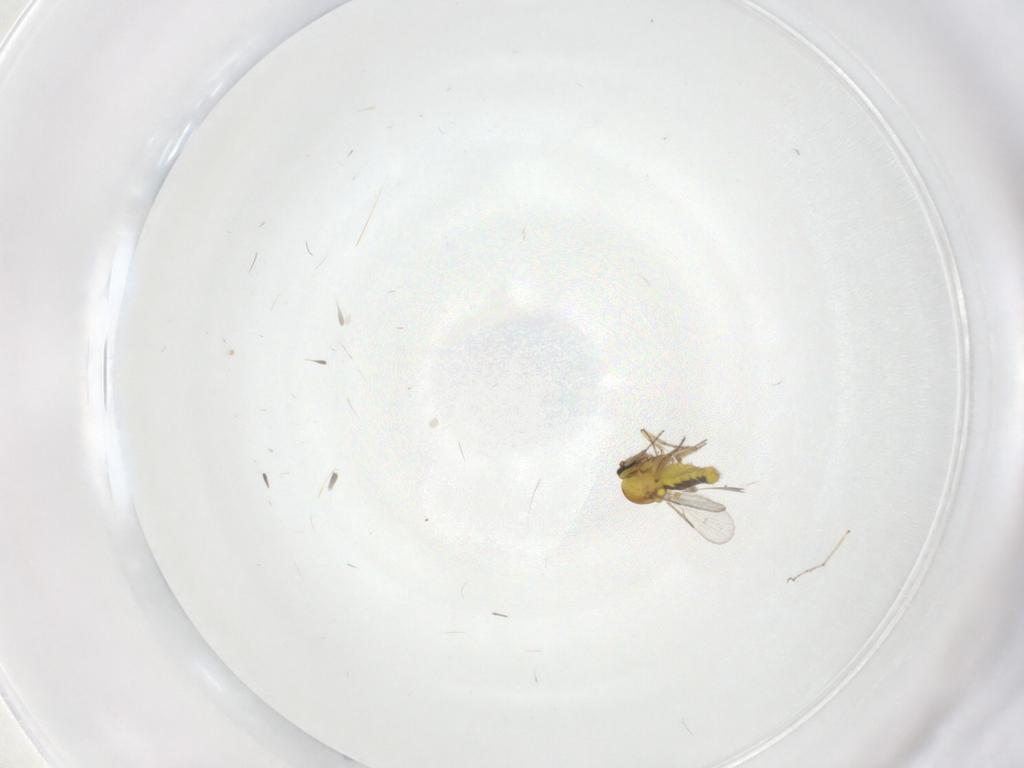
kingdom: Animalia
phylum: Arthropoda
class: Insecta
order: Diptera
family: Ceratopogonidae
